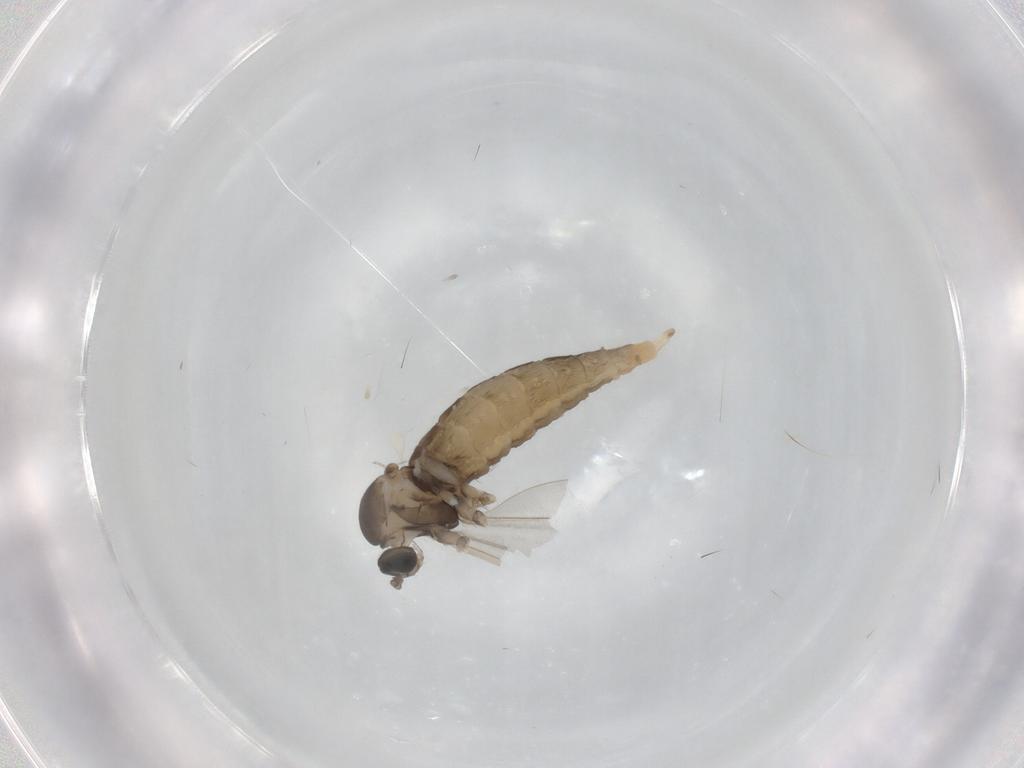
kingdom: Animalia
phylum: Arthropoda
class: Insecta
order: Diptera
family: Cecidomyiidae
